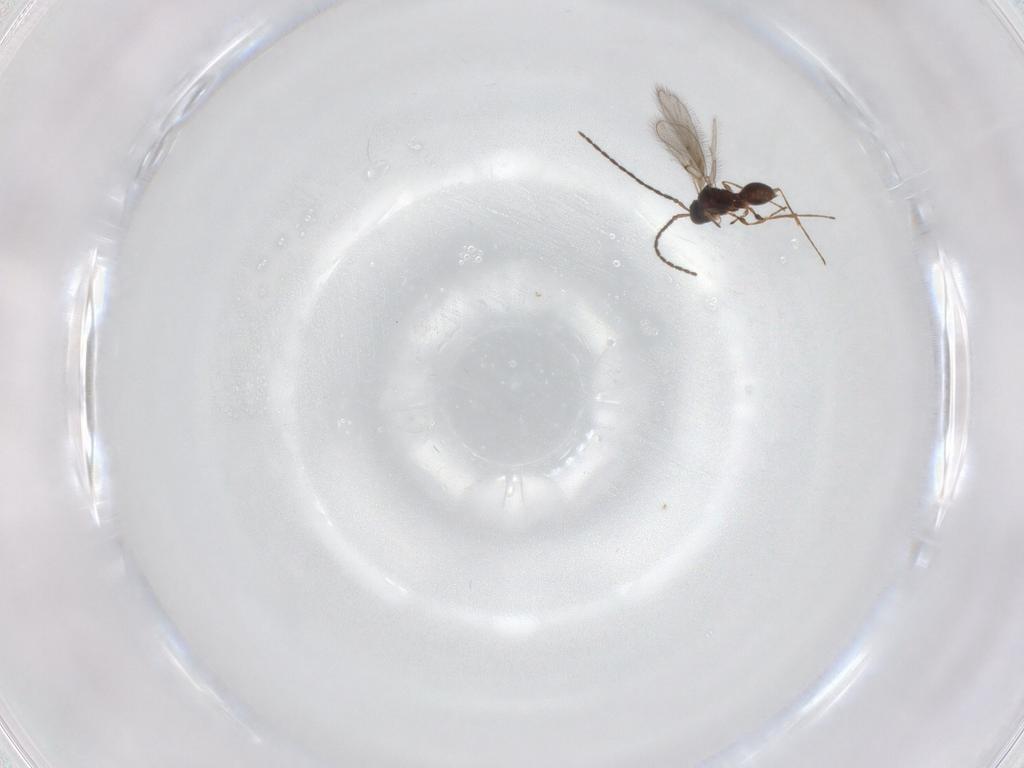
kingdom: Animalia
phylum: Arthropoda
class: Insecta
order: Hymenoptera
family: Diapriidae
